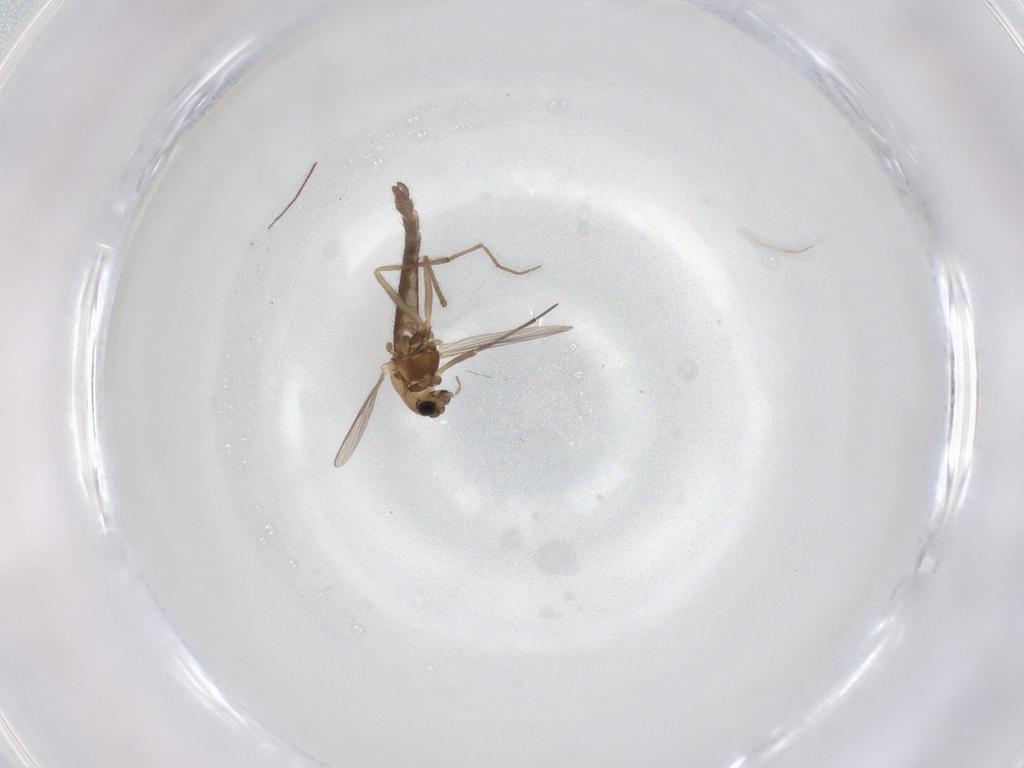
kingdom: Animalia
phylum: Arthropoda
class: Insecta
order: Diptera
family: Chironomidae
